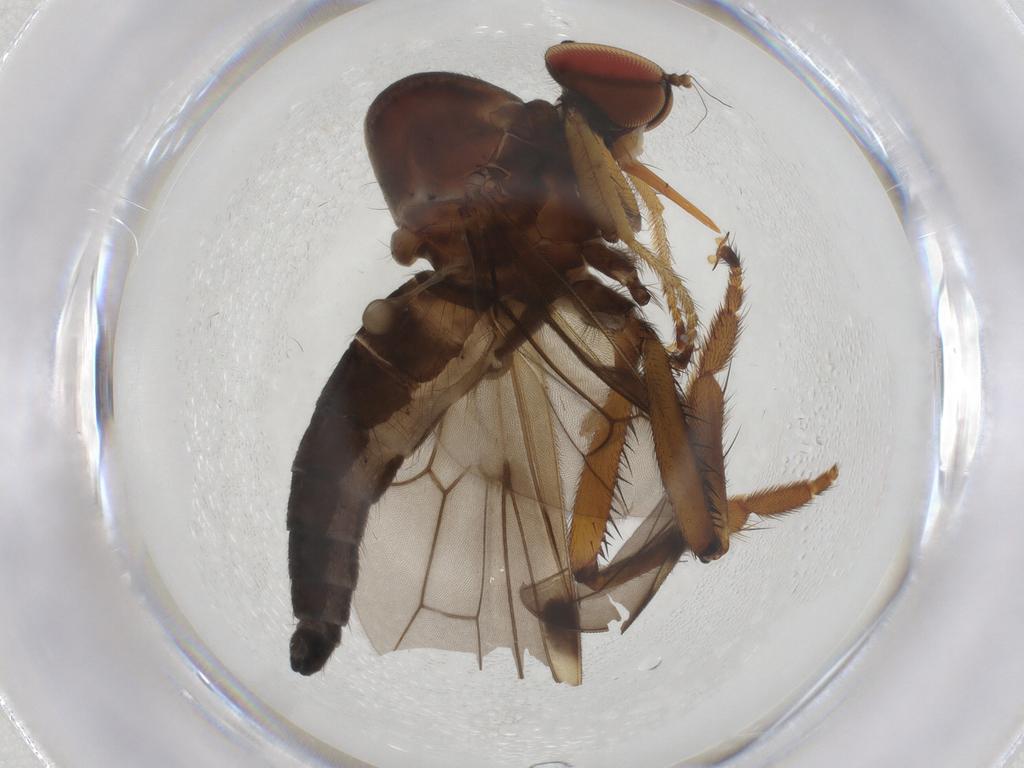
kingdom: Animalia
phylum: Arthropoda
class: Insecta
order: Diptera
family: Hybotidae
